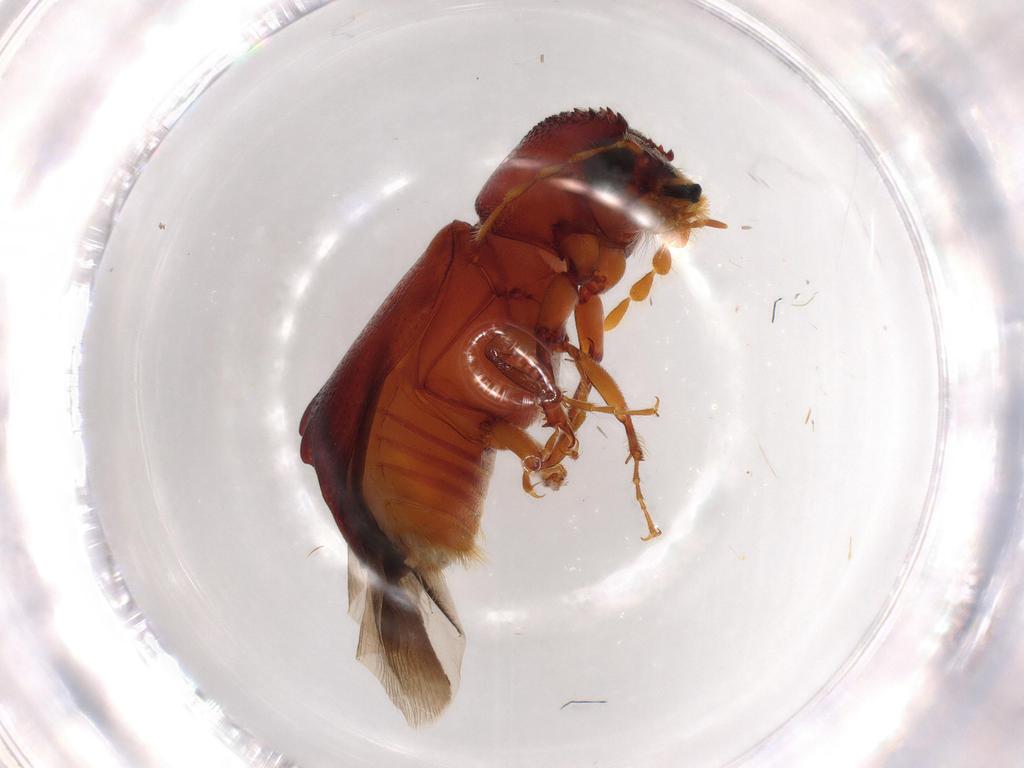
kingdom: Animalia
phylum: Arthropoda
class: Insecta
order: Coleoptera
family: Bostrichidae
